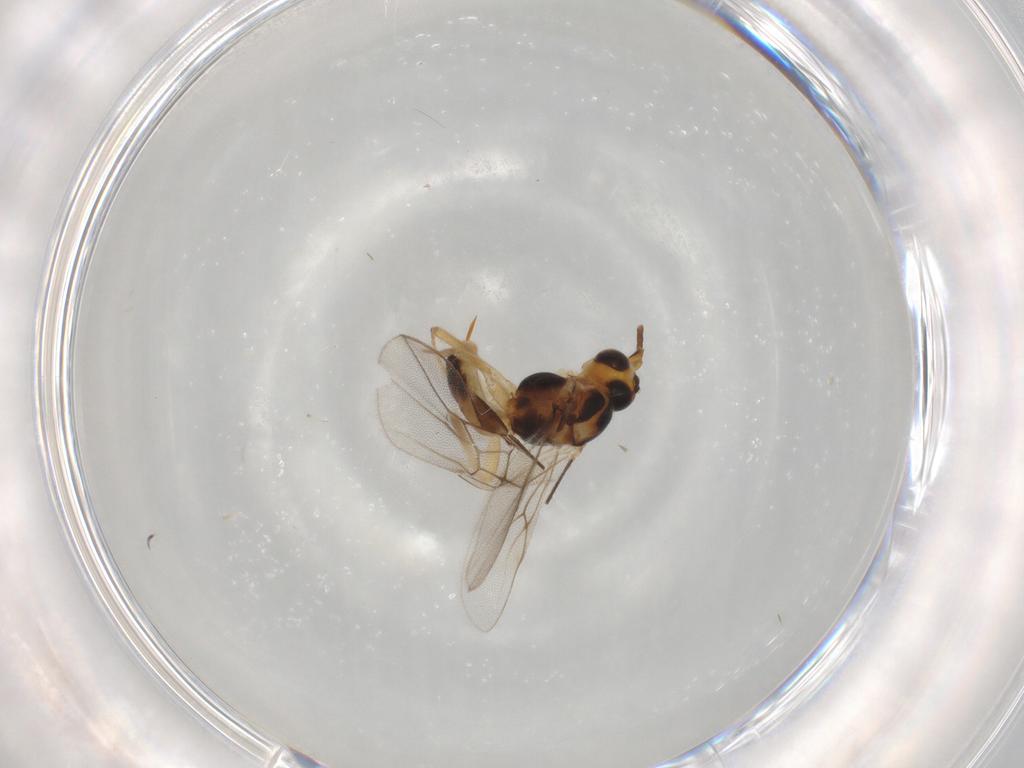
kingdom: Animalia
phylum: Arthropoda
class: Insecta
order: Hymenoptera
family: Braconidae
